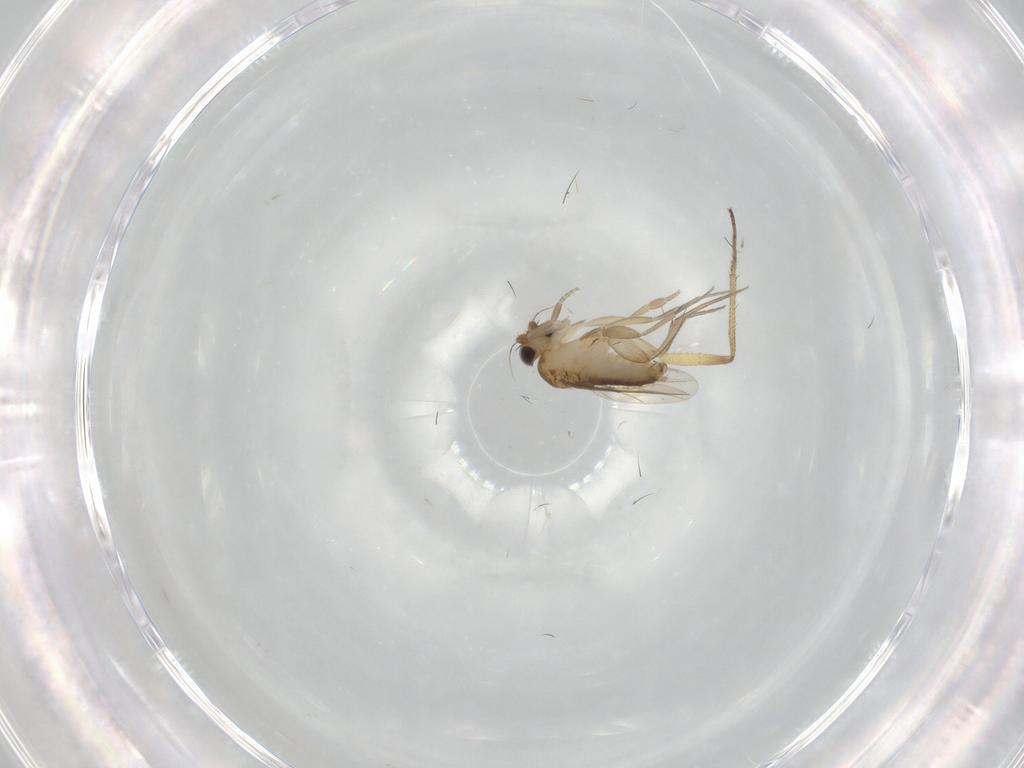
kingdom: Animalia
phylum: Arthropoda
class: Insecta
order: Diptera
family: Phoridae
